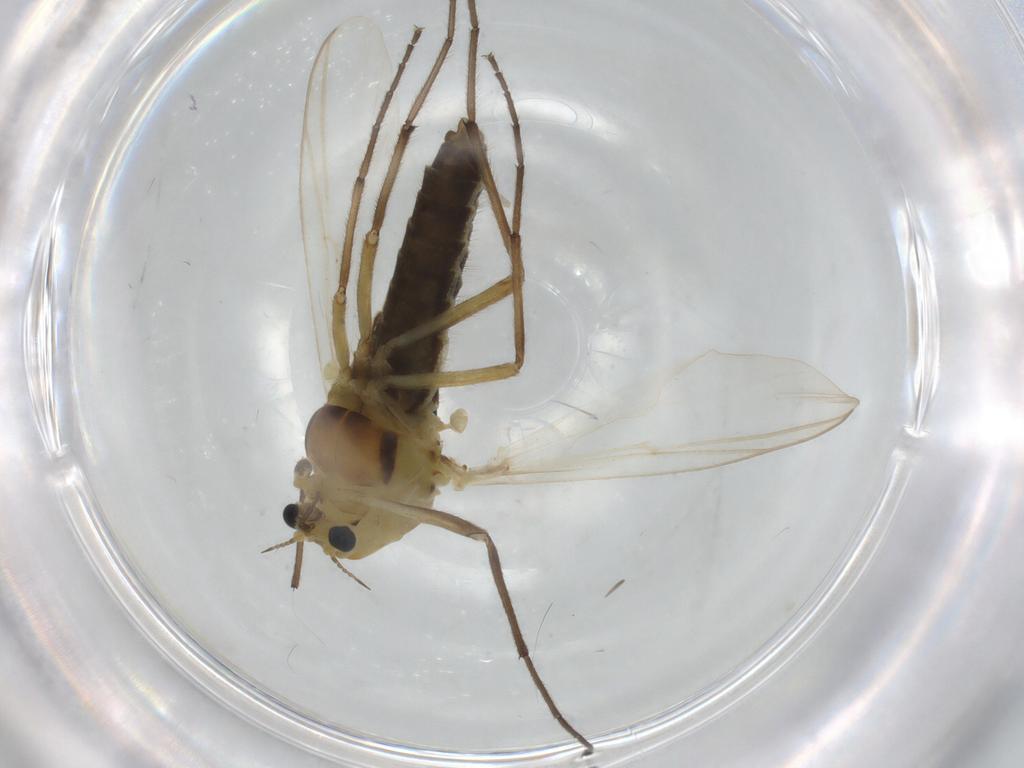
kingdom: Animalia
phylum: Arthropoda
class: Insecta
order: Diptera
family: Chironomidae
